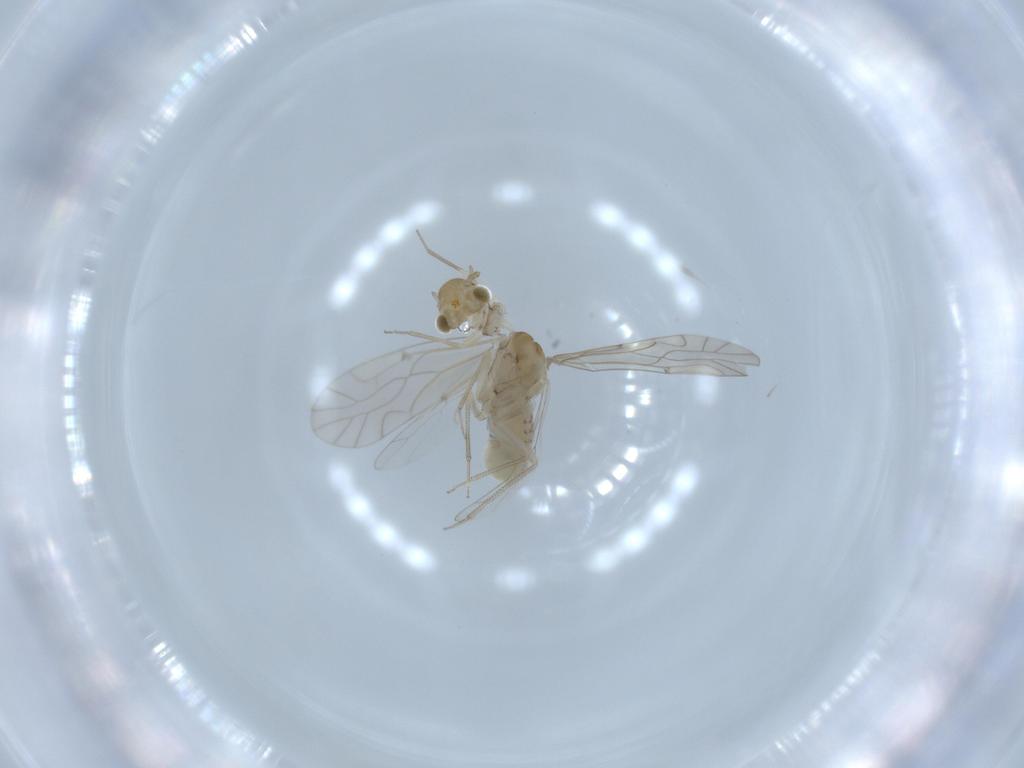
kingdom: Animalia
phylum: Arthropoda
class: Insecta
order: Psocodea
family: Lachesillidae
